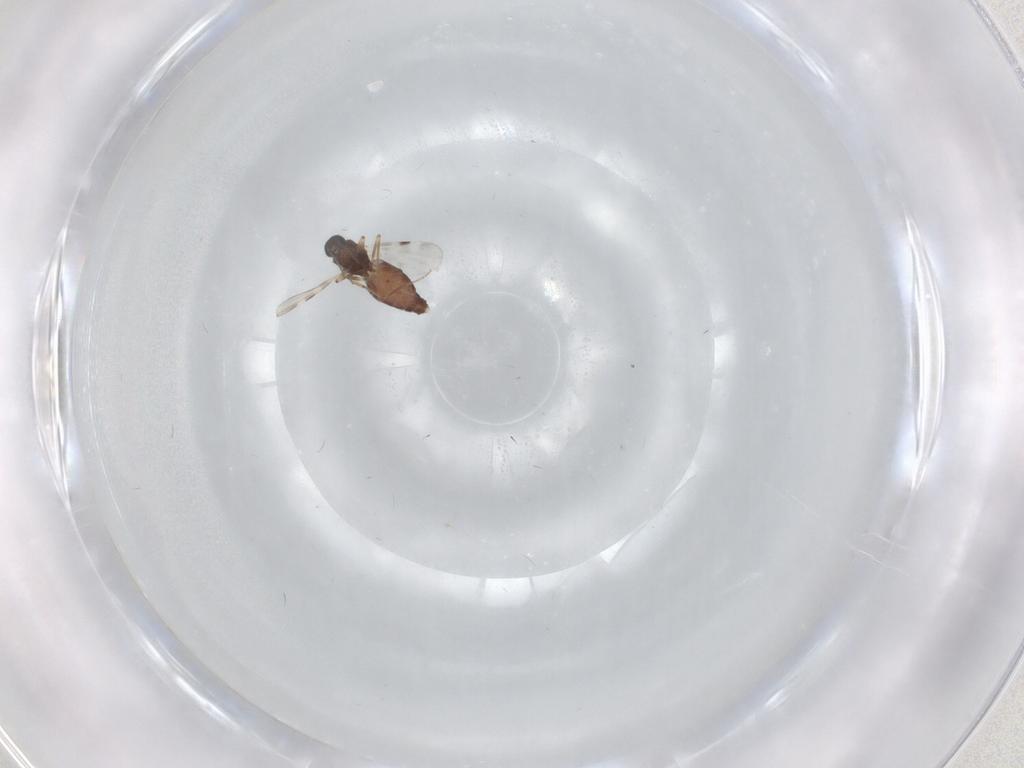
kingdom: Animalia
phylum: Arthropoda
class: Insecta
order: Diptera
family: Phoridae
